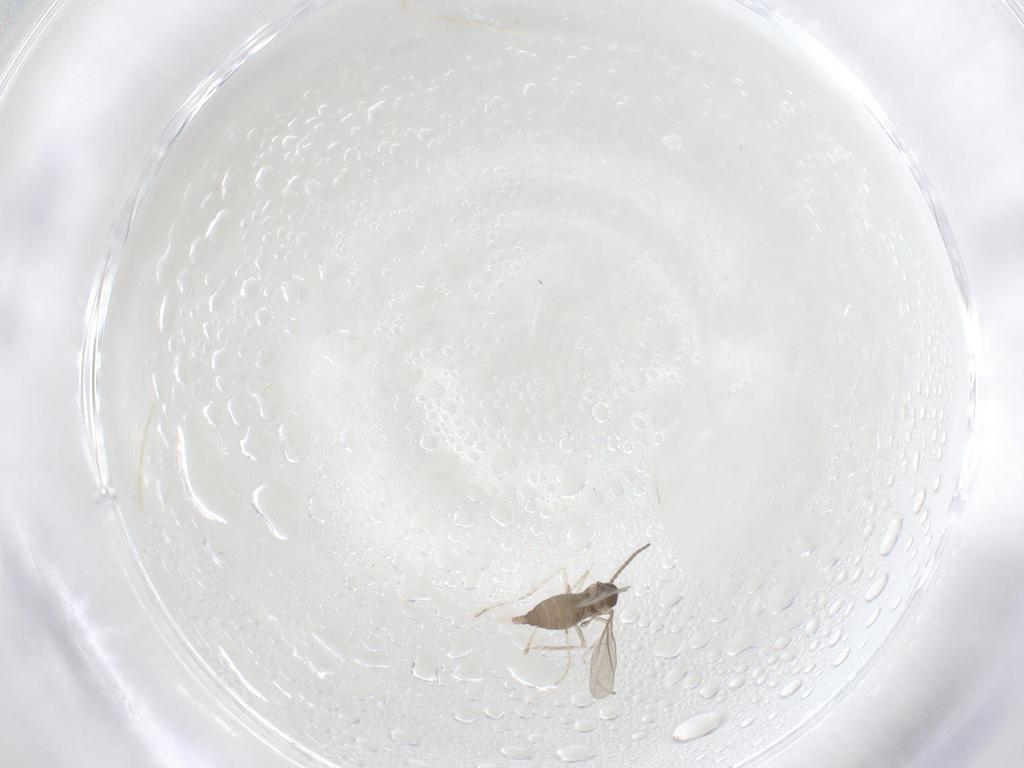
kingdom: Animalia
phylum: Arthropoda
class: Insecta
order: Diptera
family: Cecidomyiidae
